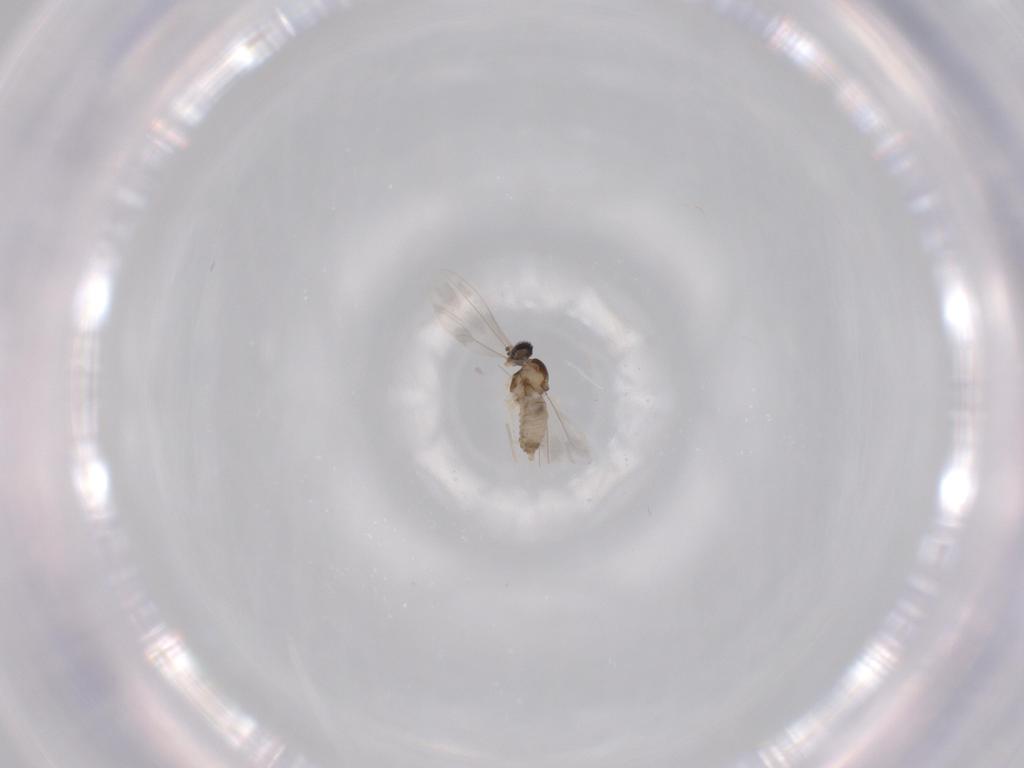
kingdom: Animalia
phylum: Arthropoda
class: Insecta
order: Diptera
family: Cecidomyiidae
